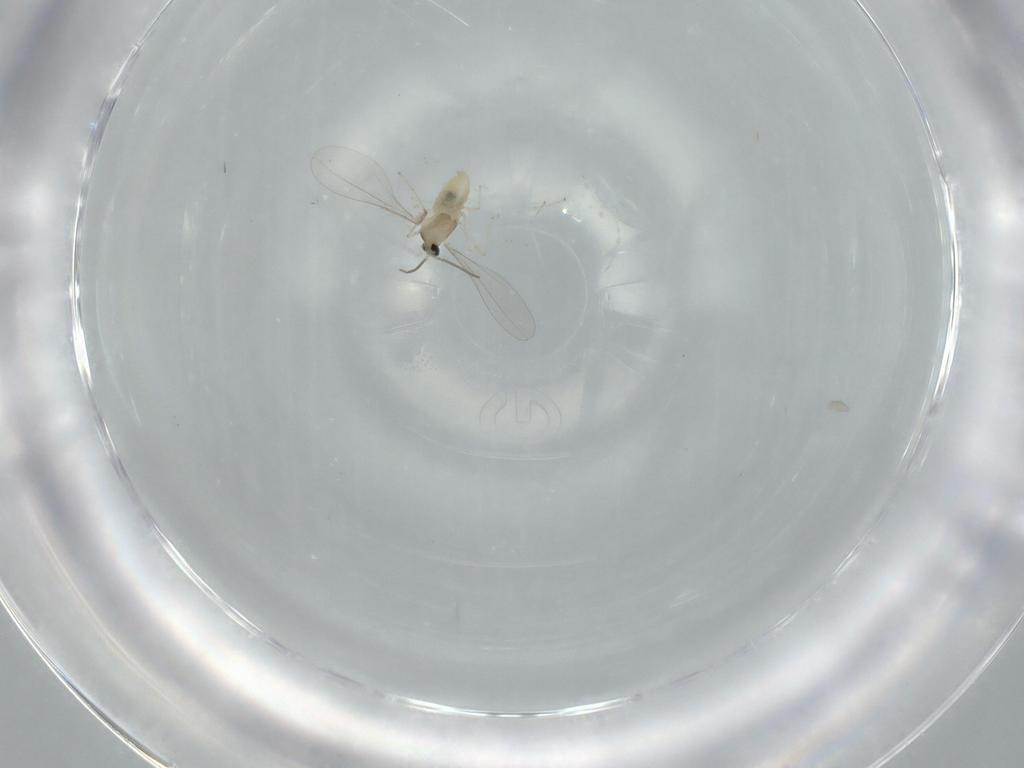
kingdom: Animalia
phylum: Arthropoda
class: Insecta
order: Diptera
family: Cecidomyiidae
